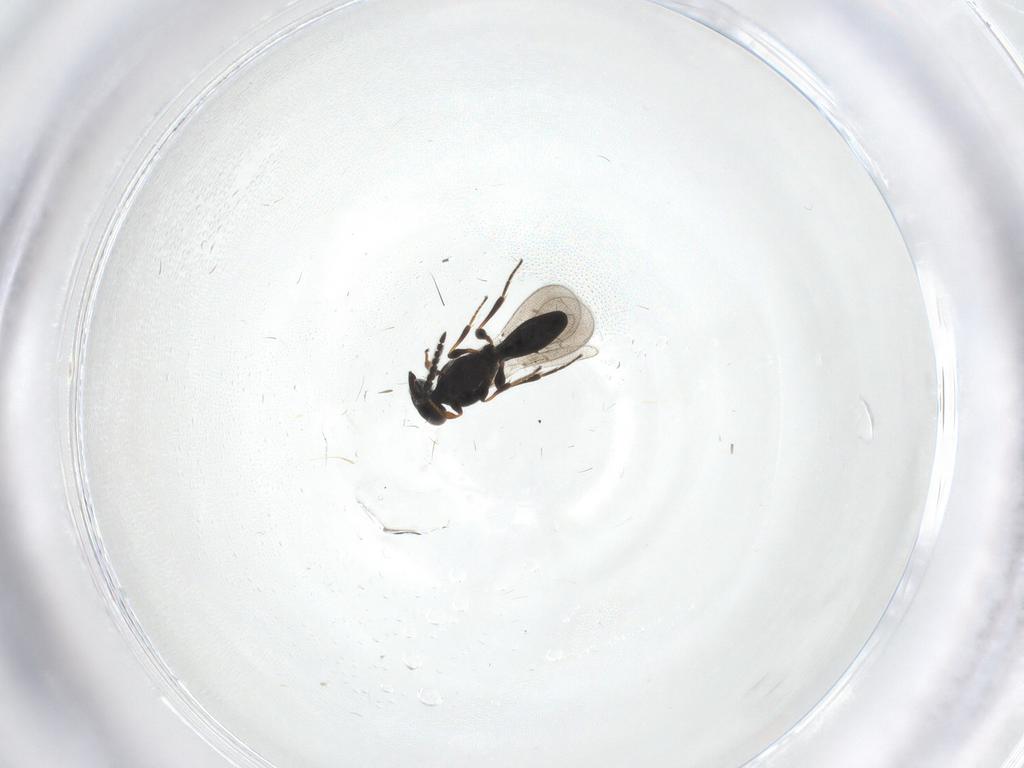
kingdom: Animalia
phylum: Arthropoda
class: Insecta
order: Hymenoptera
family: Platygastridae
